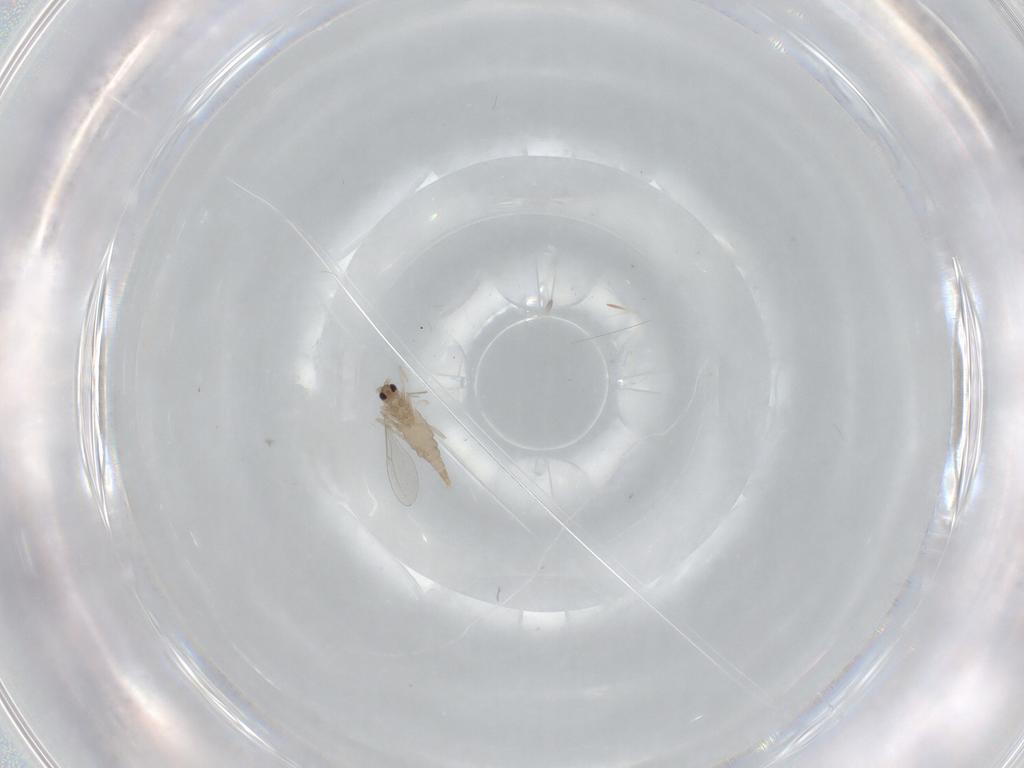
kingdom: Animalia
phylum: Arthropoda
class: Insecta
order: Diptera
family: Cecidomyiidae
